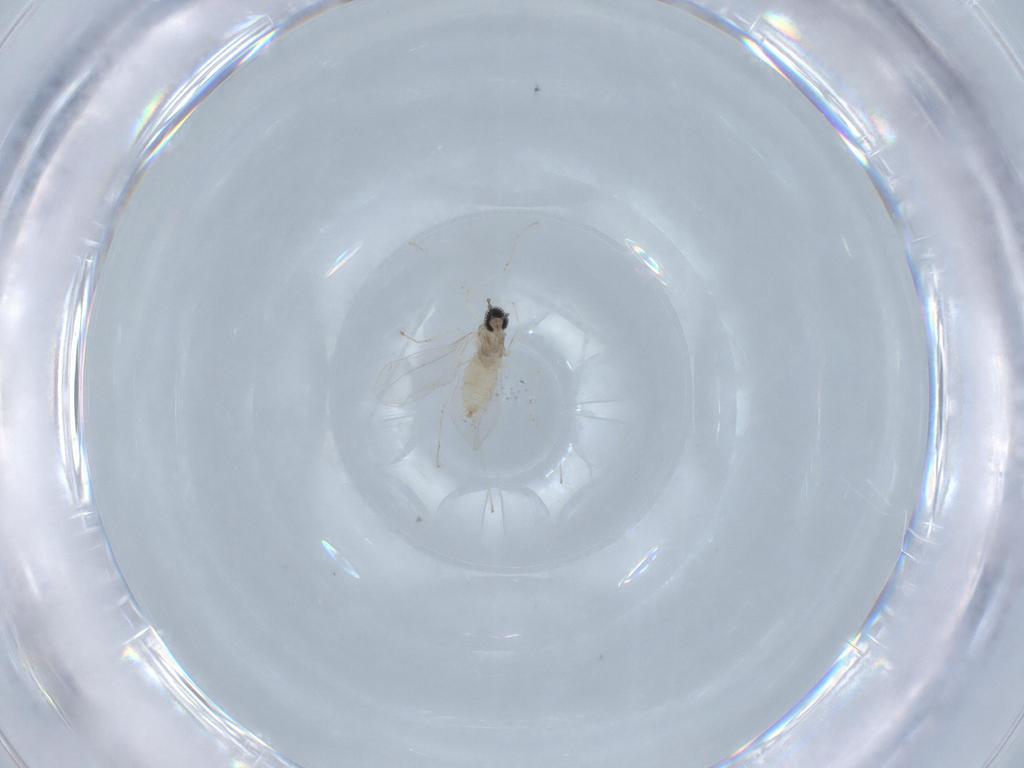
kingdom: Animalia
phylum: Arthropoda
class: Insecta
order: Diptera
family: Cecidomyiidae
